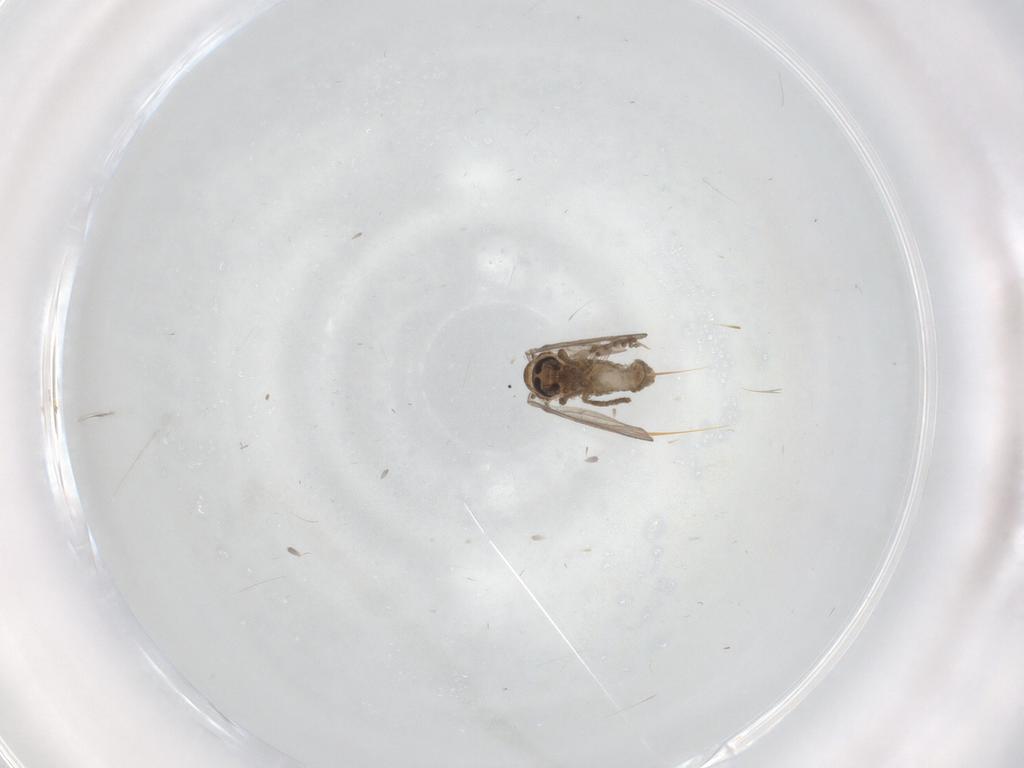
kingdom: Animalia
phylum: Arthropoda
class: Insecta
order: Diptera
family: Psychodidae
